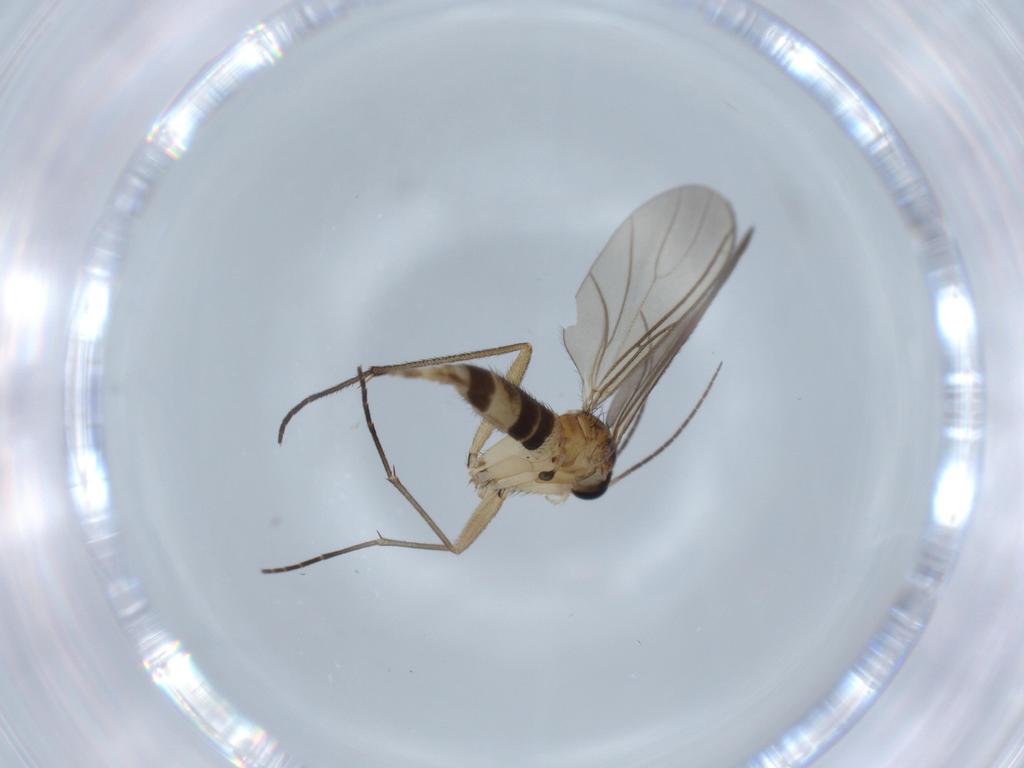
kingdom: Animalia
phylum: Arthropoda
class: Insecta
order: Diptera
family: Sciaridae
